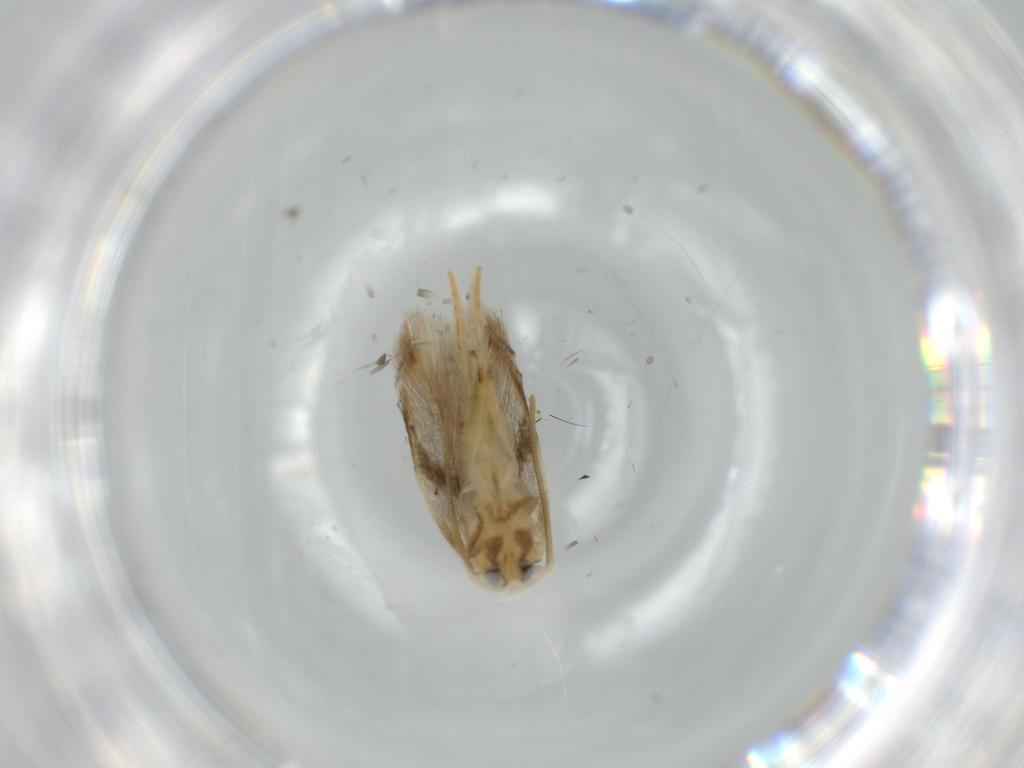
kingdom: Animalia
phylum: Arthropoda
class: Insecta
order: Lepidoptera
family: Opostegidae
